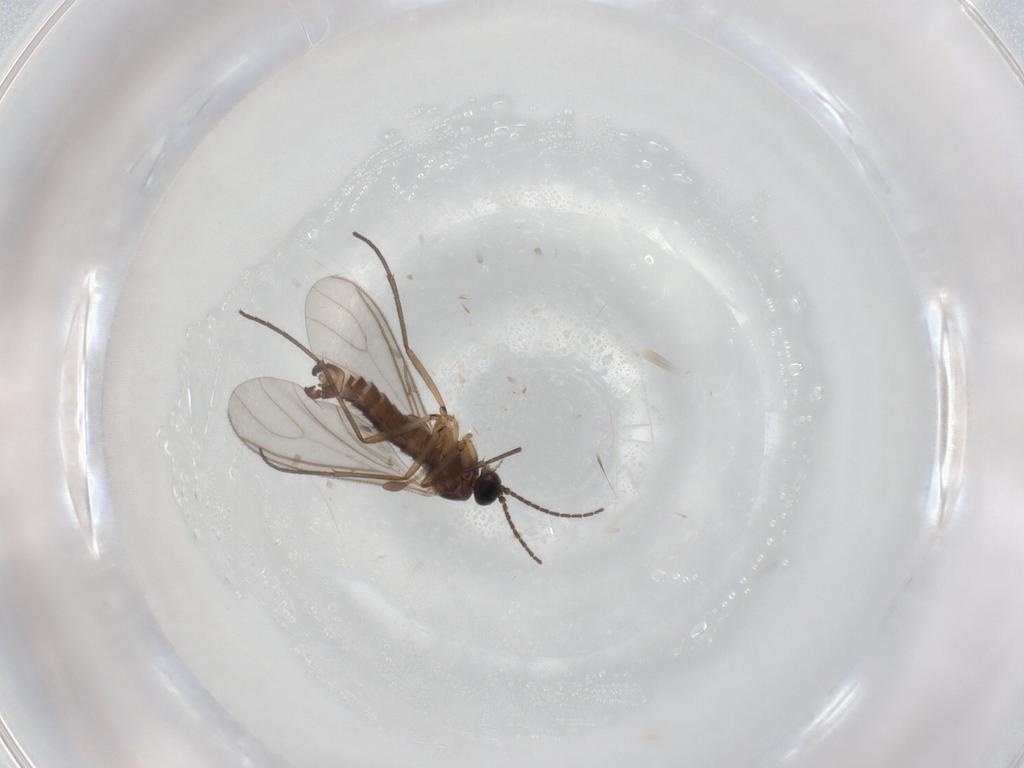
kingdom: Animalia
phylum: Arthropoda
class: Insecta
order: Diptera
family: Sciaridae
